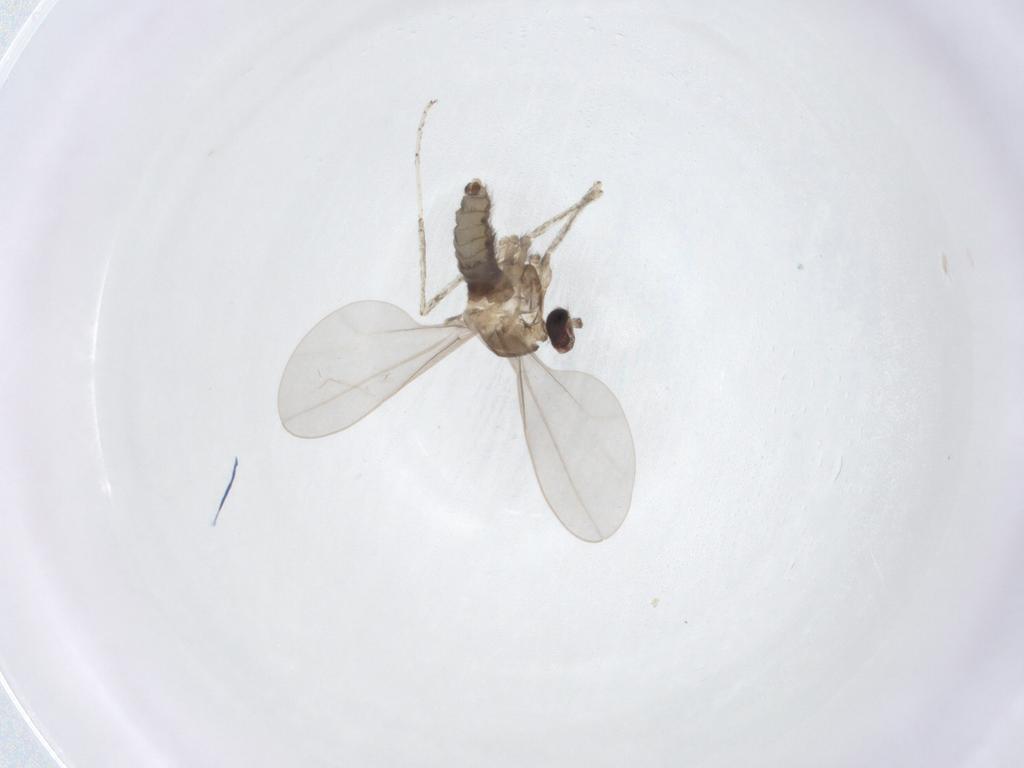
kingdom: Animalia
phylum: Arthropoda
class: Insecta
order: Diptera
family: Cecidomyiidae
